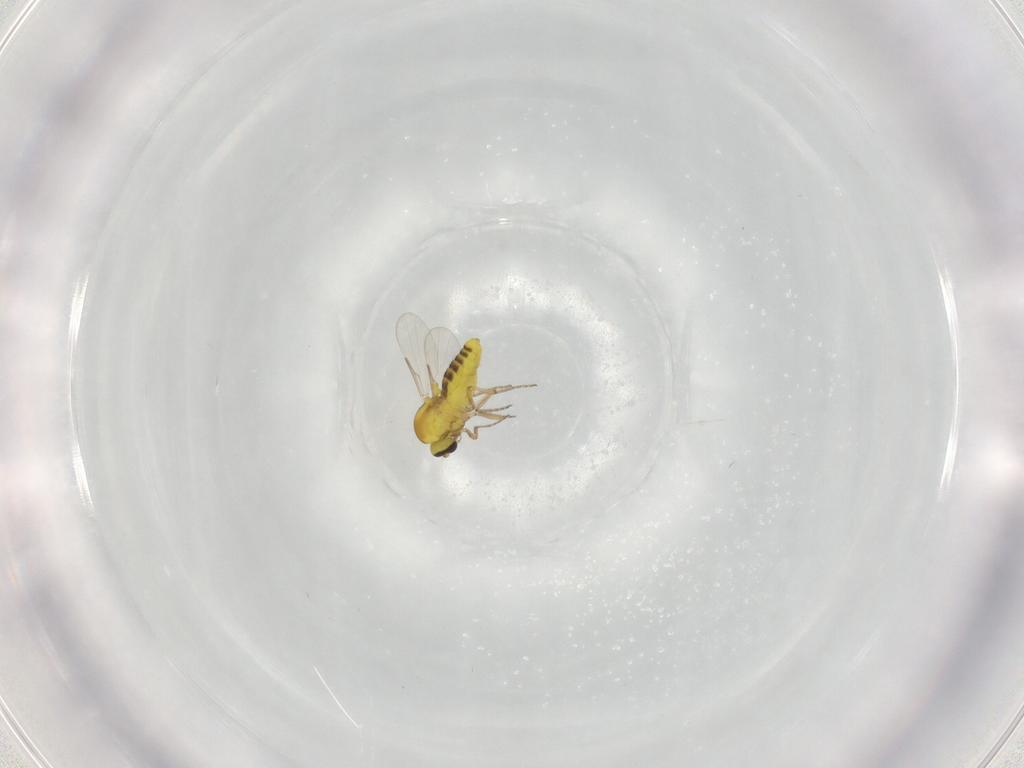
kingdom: Animalia
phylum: Arthropoda
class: Insecta
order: Diptera
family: Ceratopogonidae
